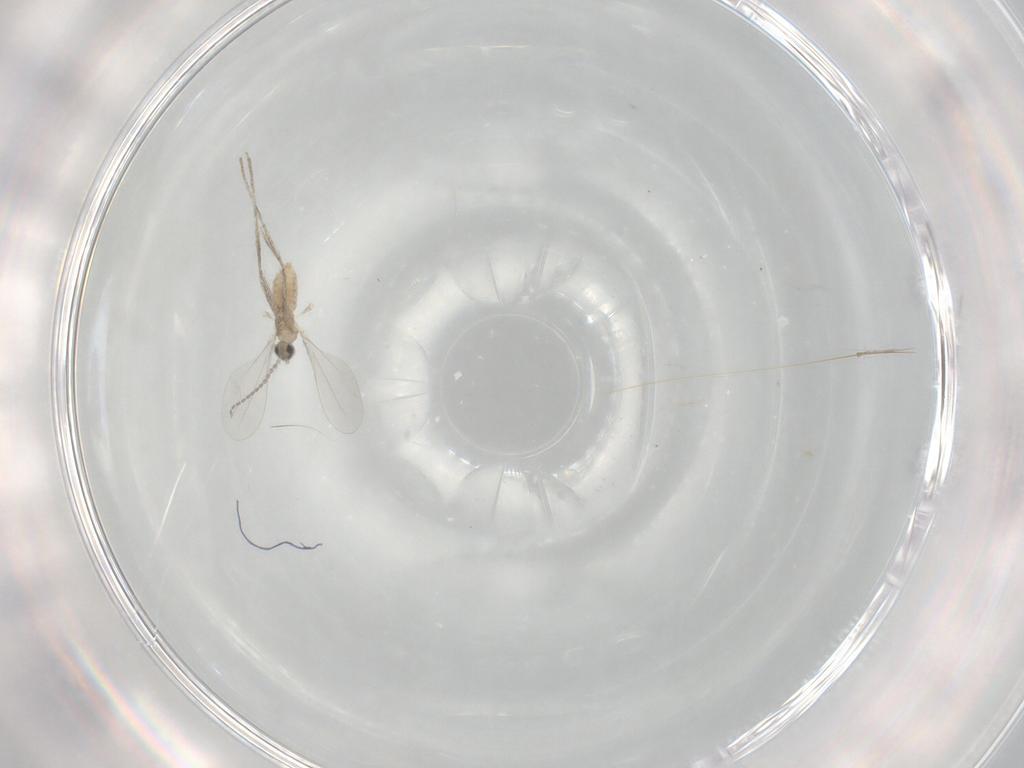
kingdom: Animalia
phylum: Arthropoda
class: Insecta
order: Diptera
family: Cecidomyiidae
